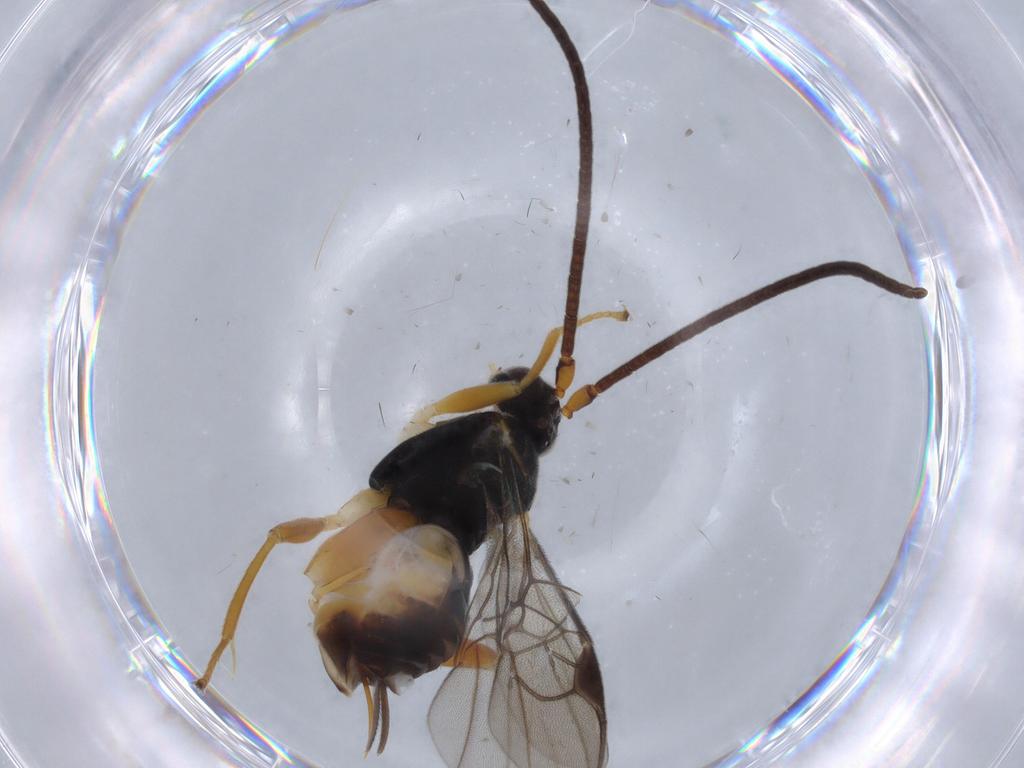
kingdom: Animalia
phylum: Arthropoda
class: Insecta
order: Hymenoptera
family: Braconidae
